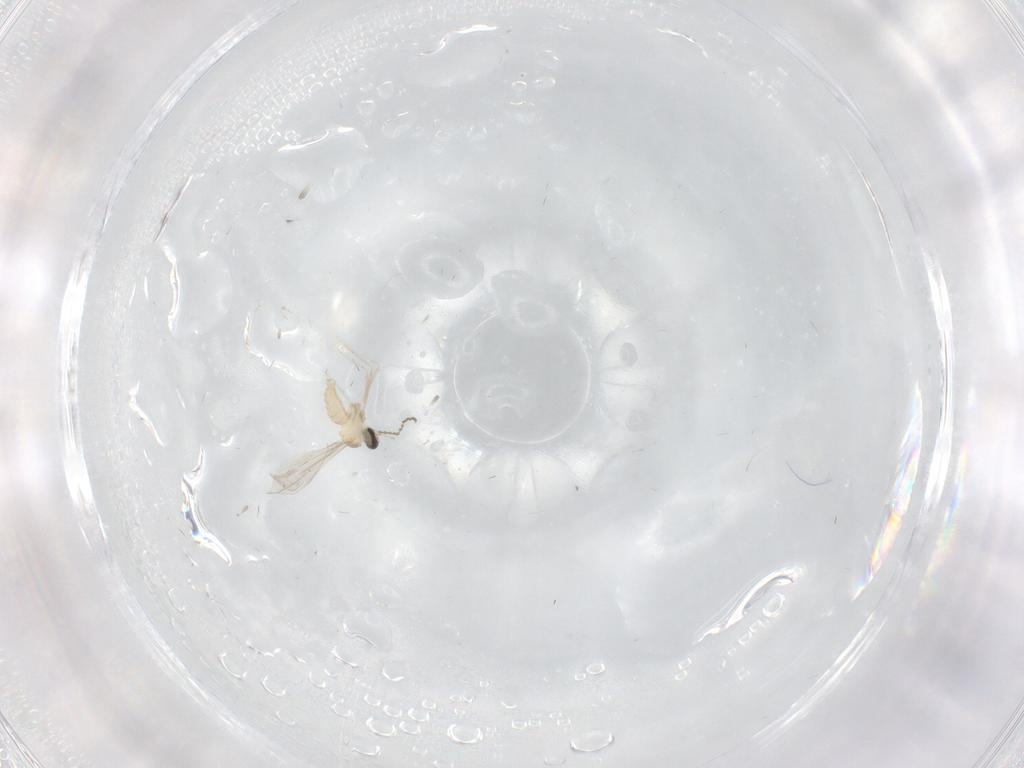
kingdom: Animalia
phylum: Arthropoda
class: Insecta
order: Diptera
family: Cecidomyiidae
